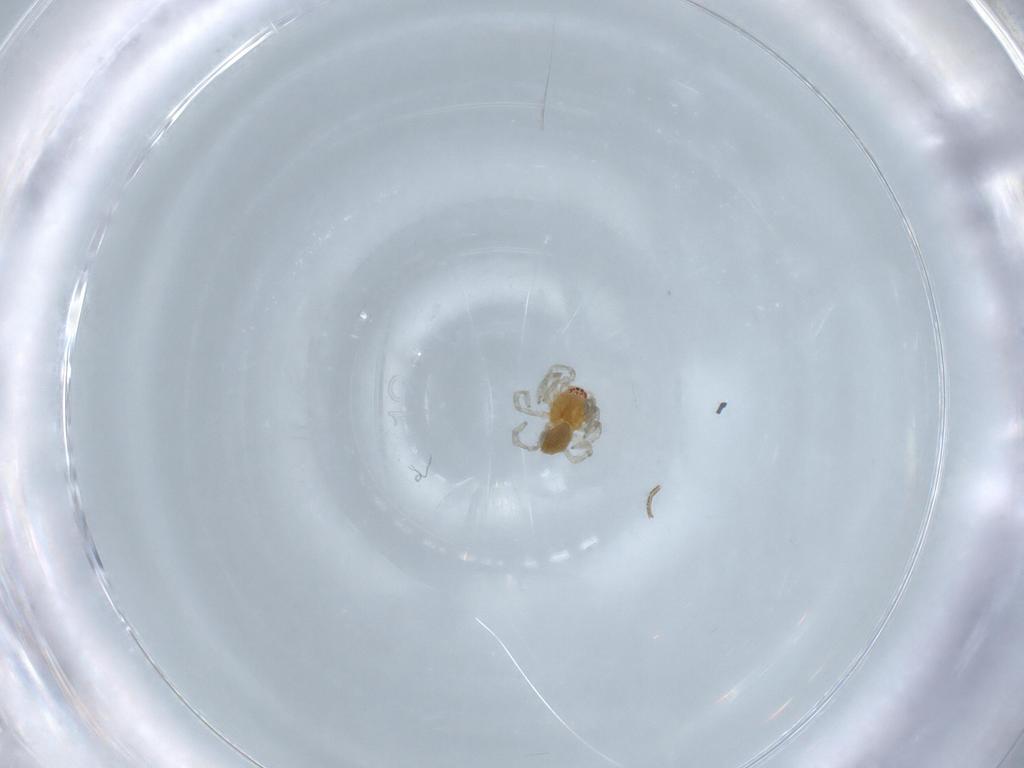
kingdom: Animalia
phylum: Arthropoda
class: Arachnida
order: Araneae
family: Dictynidae
